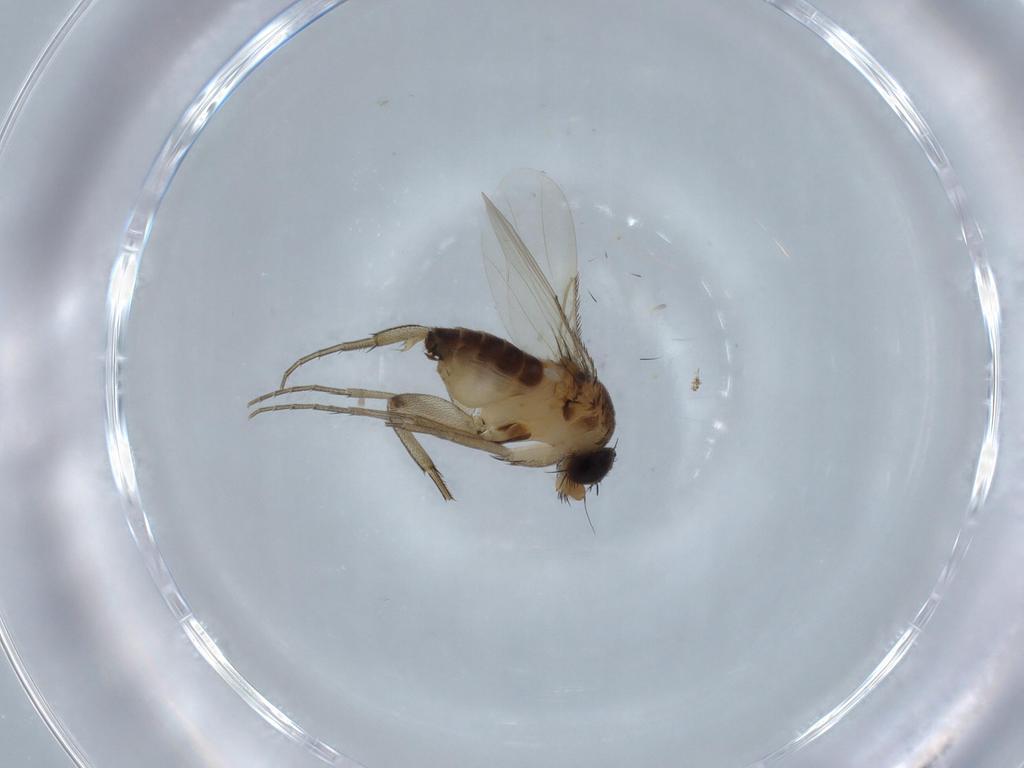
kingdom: Animalia
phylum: Arthropoda
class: Insecta
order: Diptera
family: Phoridae
